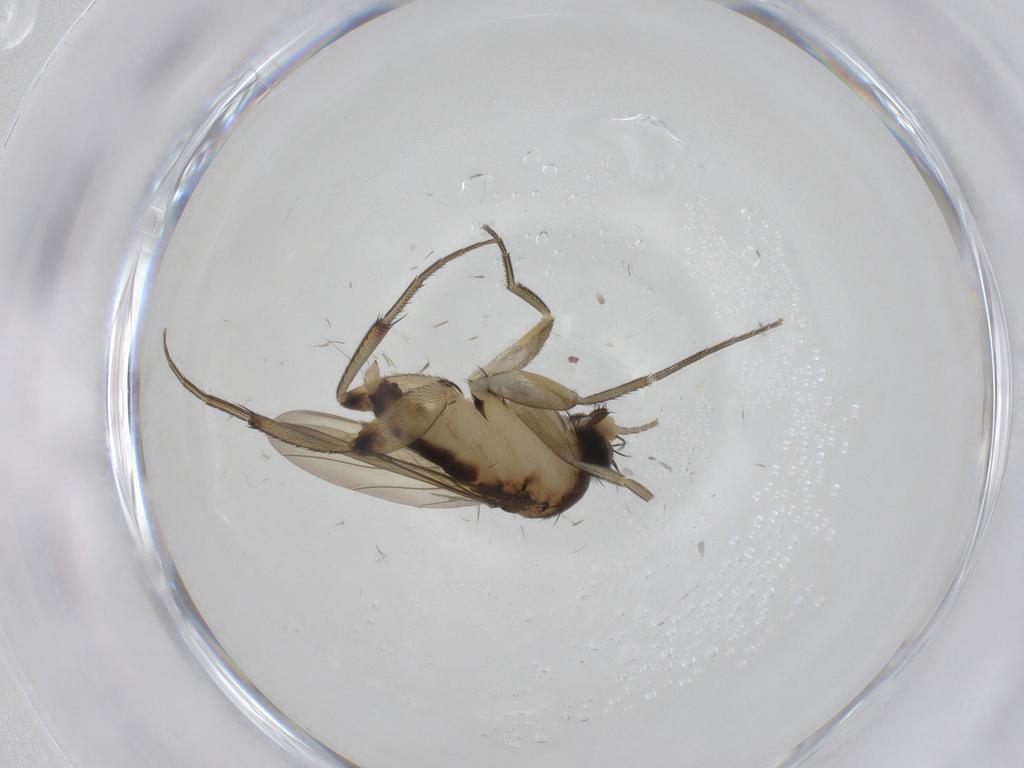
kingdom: Animalia
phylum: Arthropoda
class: Insecta
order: Diptera
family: Phoridae
